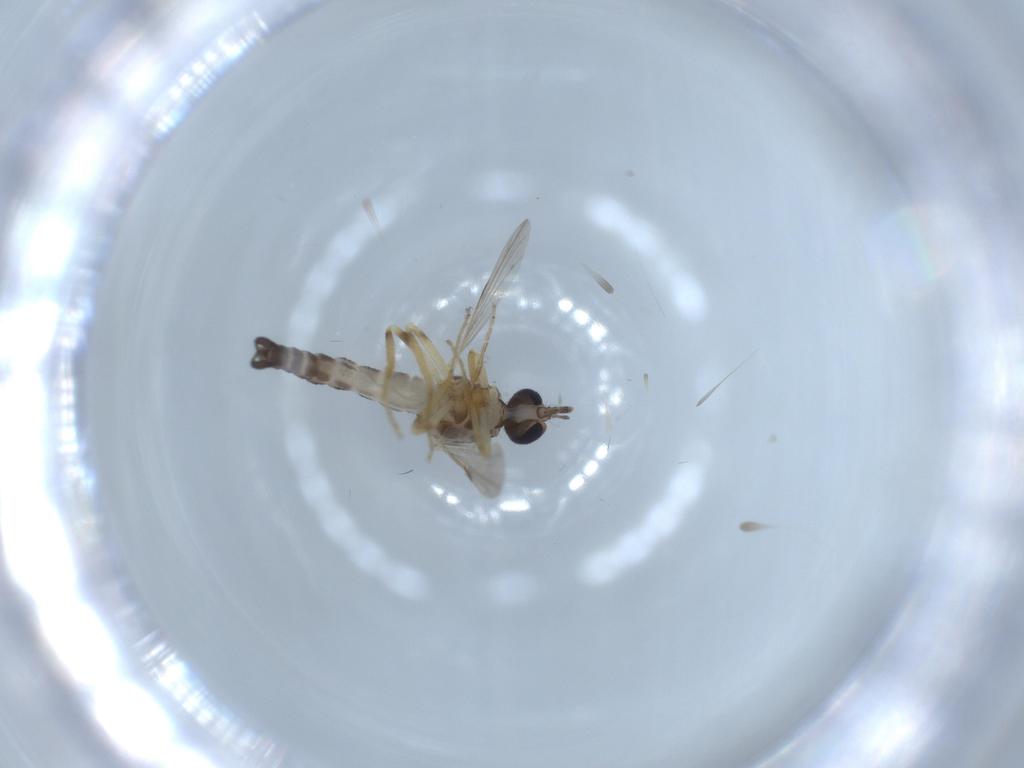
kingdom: Animalia
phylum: Arthropoda
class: Insecta
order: Diptera
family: Ceratopogonidae
